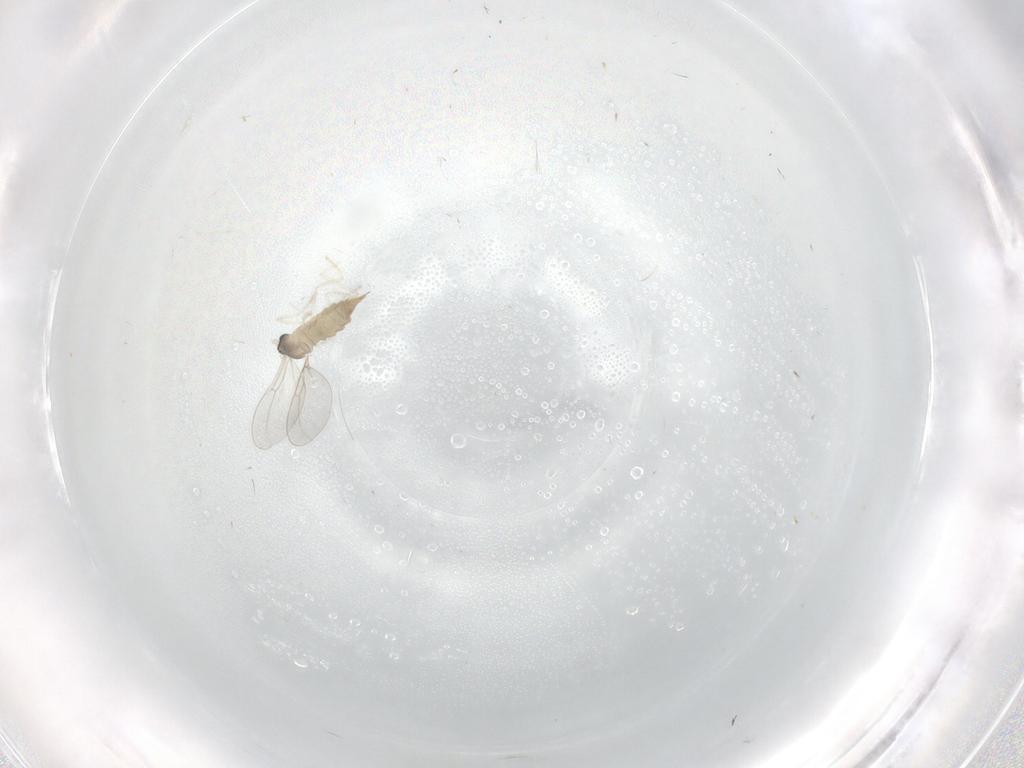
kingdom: Animalia
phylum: Arthropoda
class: Insecta
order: Diptera
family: Cecidomyiidae
